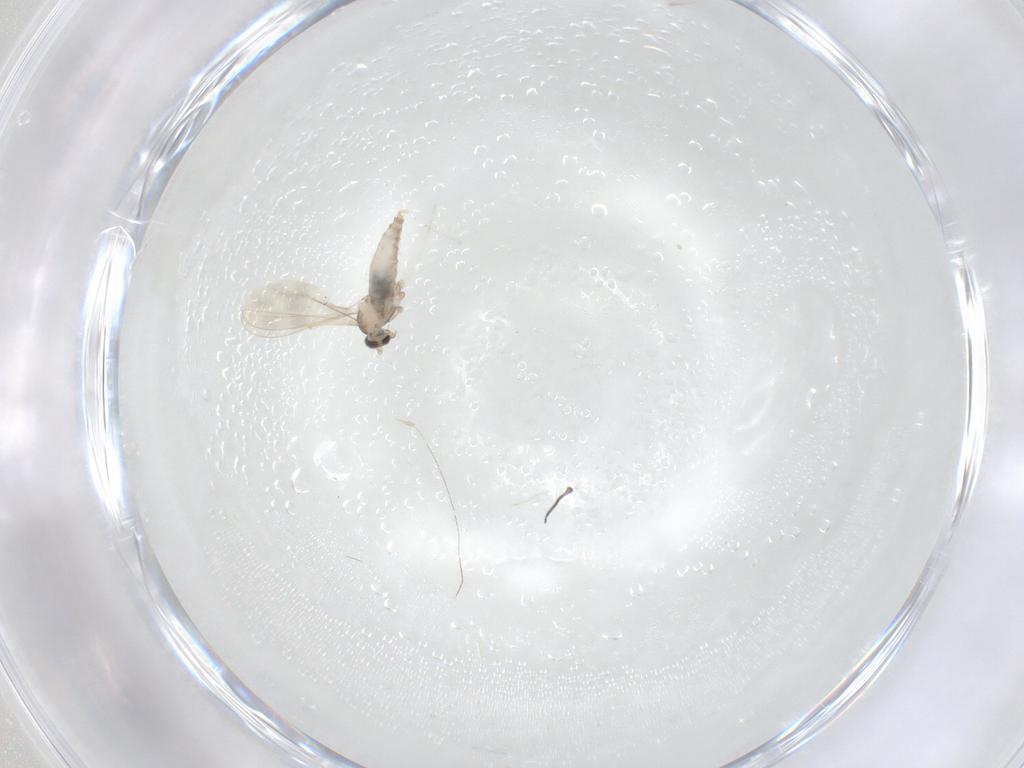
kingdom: Animalia
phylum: Arthropoda
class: Insecta
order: Diptera
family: Cecidomyiidae
